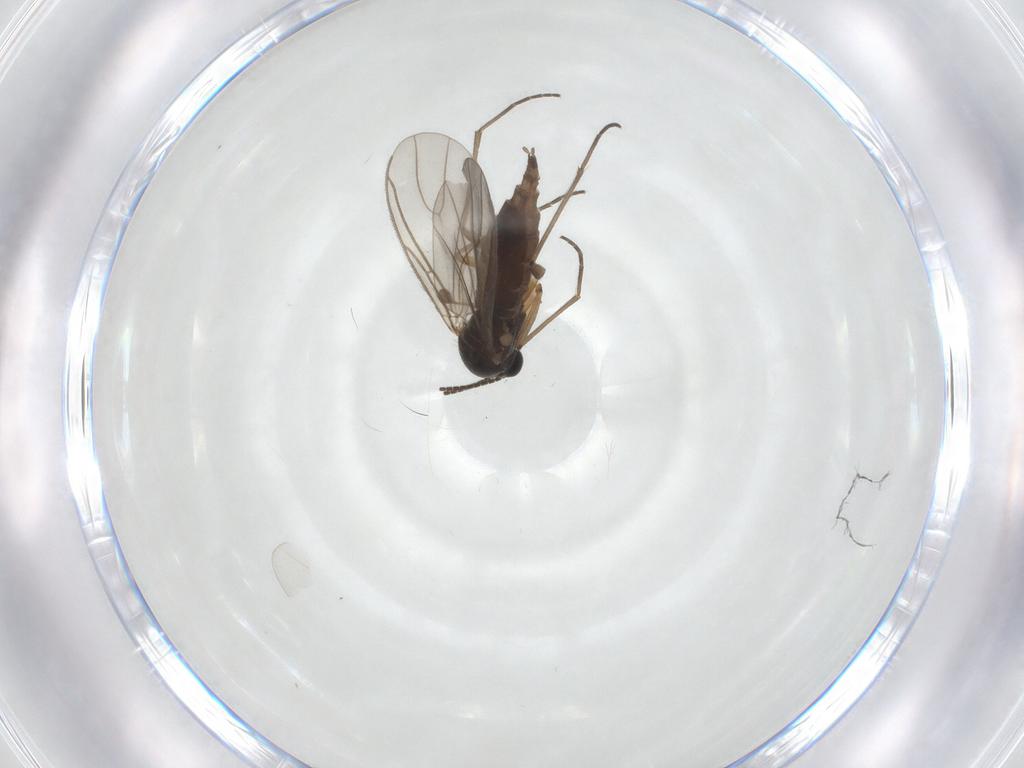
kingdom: Animalia
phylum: Arthropoda
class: Insecta
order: Diptera
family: Sciaridae
